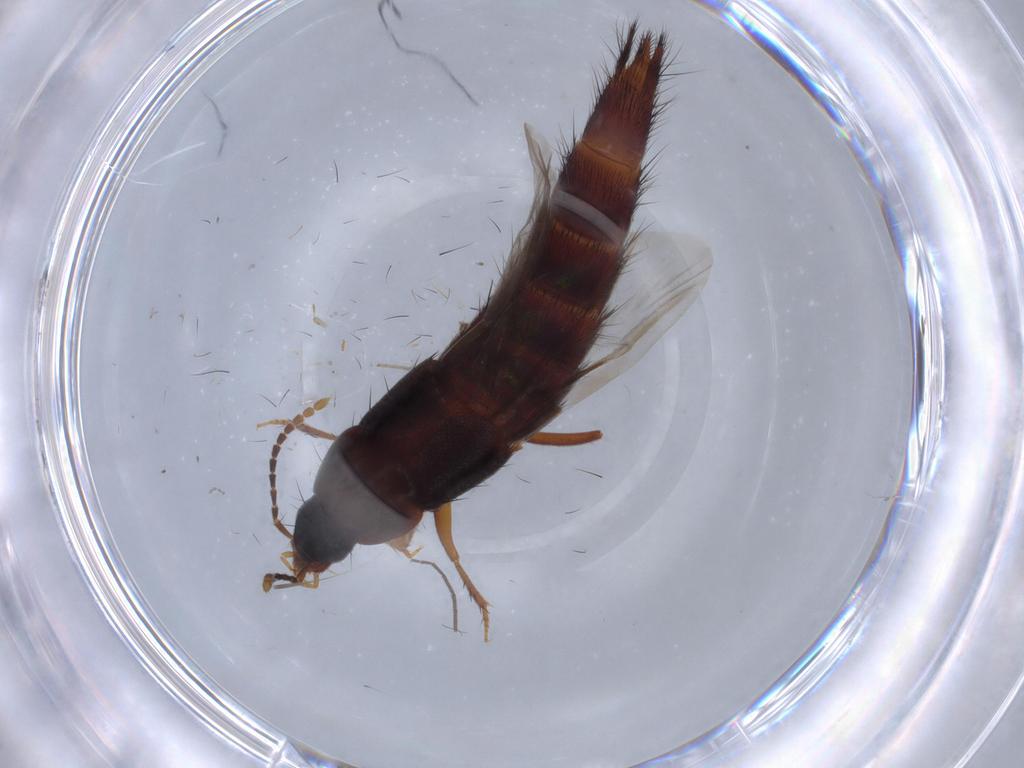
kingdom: Animalia
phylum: Arthropoda
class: Insecta
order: Coleoptera
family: Staphylinidae
